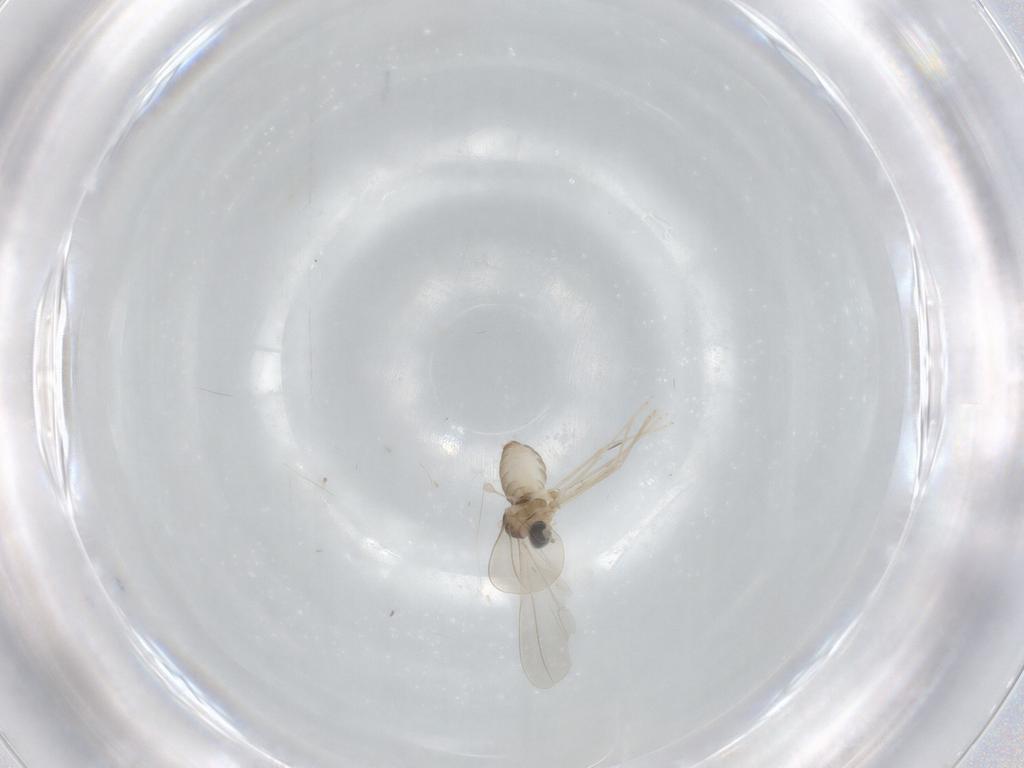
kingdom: Animalia
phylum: Arthropoda
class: Insecta
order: Diptera
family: Cecidomyiidae
